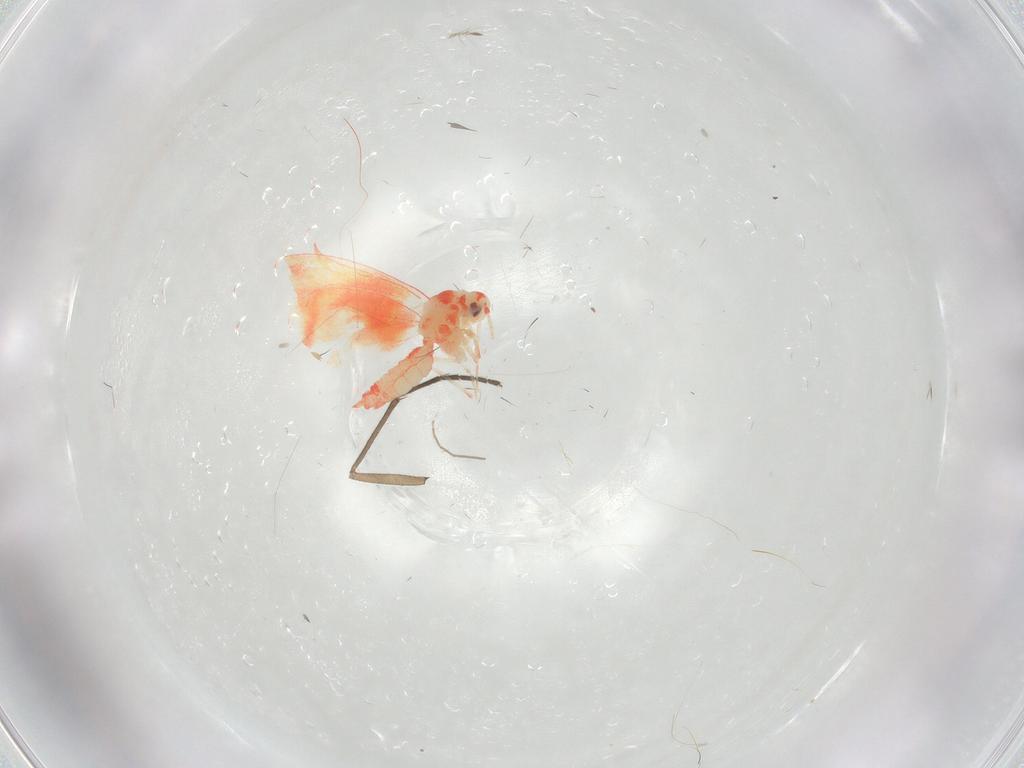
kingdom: Animalia
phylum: Arthropoda
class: Insecta
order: Hemiptera
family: Aleyrodidae
